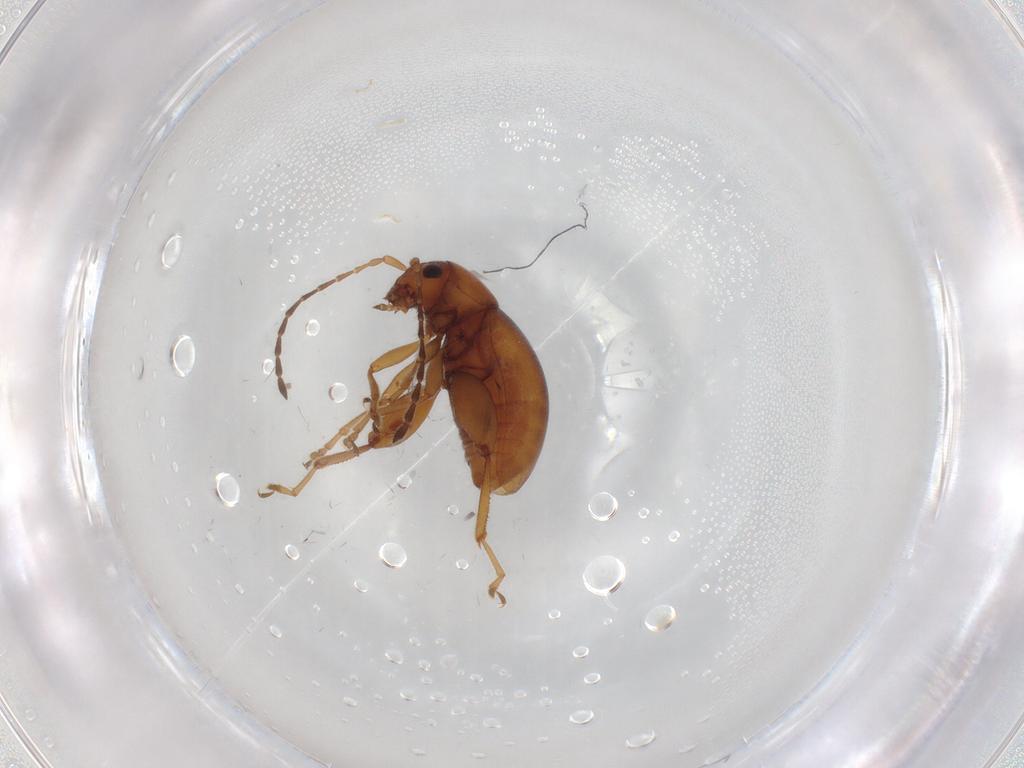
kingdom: Animalia
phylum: Arthropoda
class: Insecta
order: Coleoptera
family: Chrysomelidae
